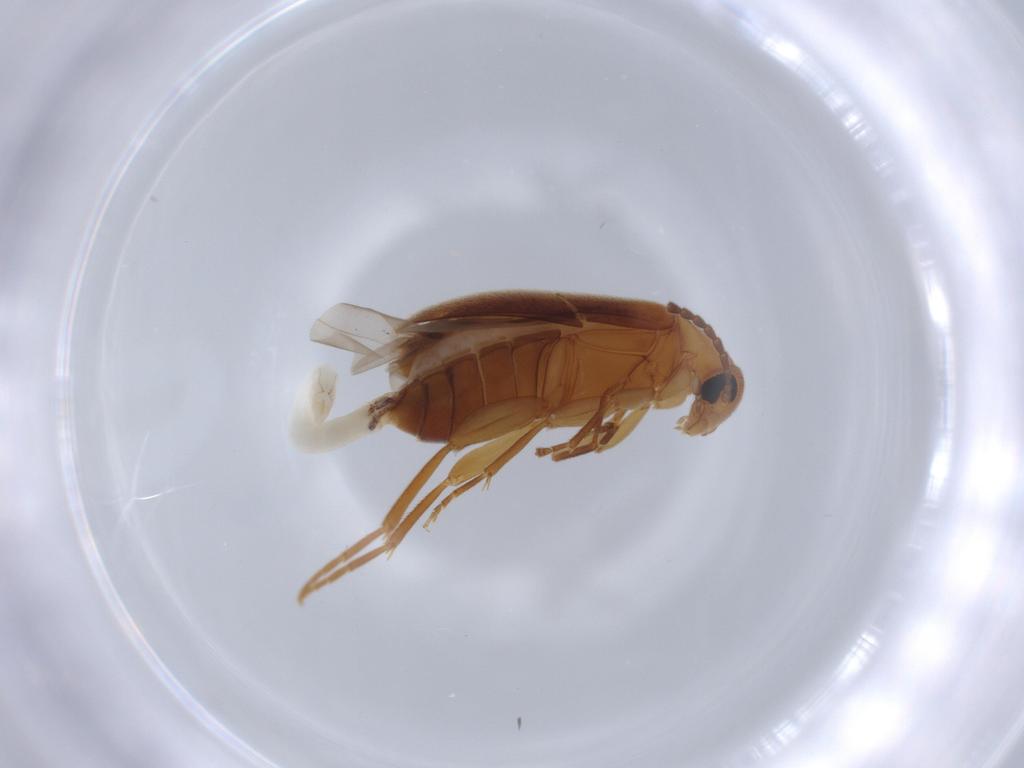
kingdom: Animalia
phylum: Arthropoda
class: Insecta
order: Coleoptera
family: Scraptiidae
